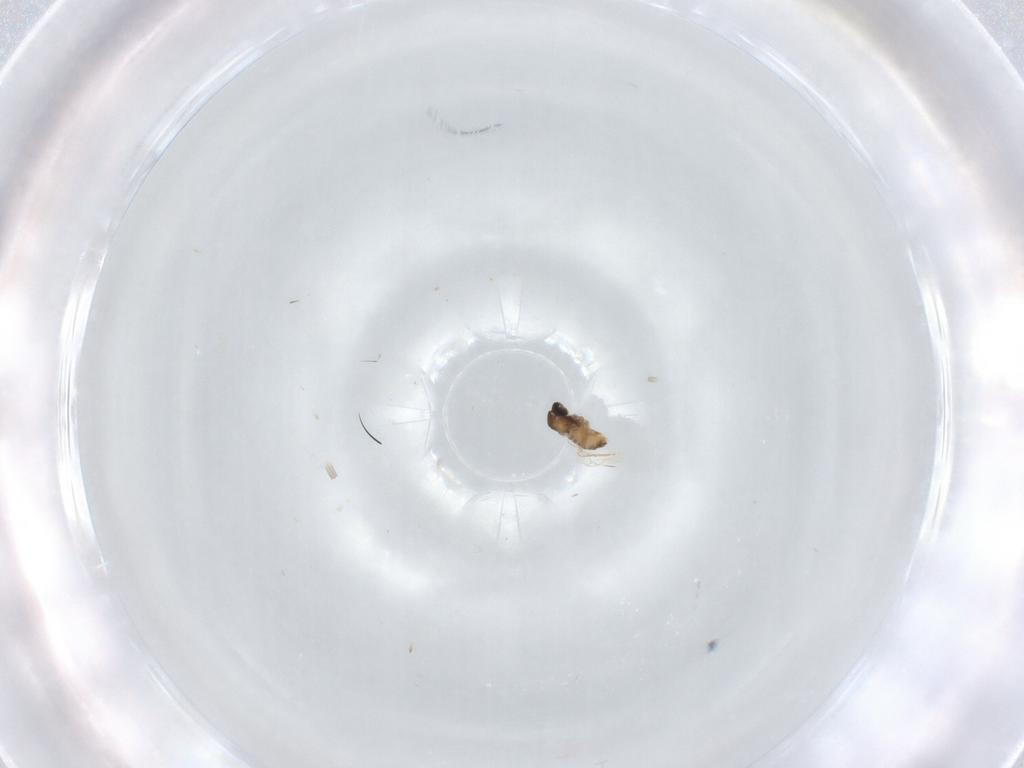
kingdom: Animalia
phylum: Arthropoda
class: Insecta
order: Diptera
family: Cecidomyiidae
